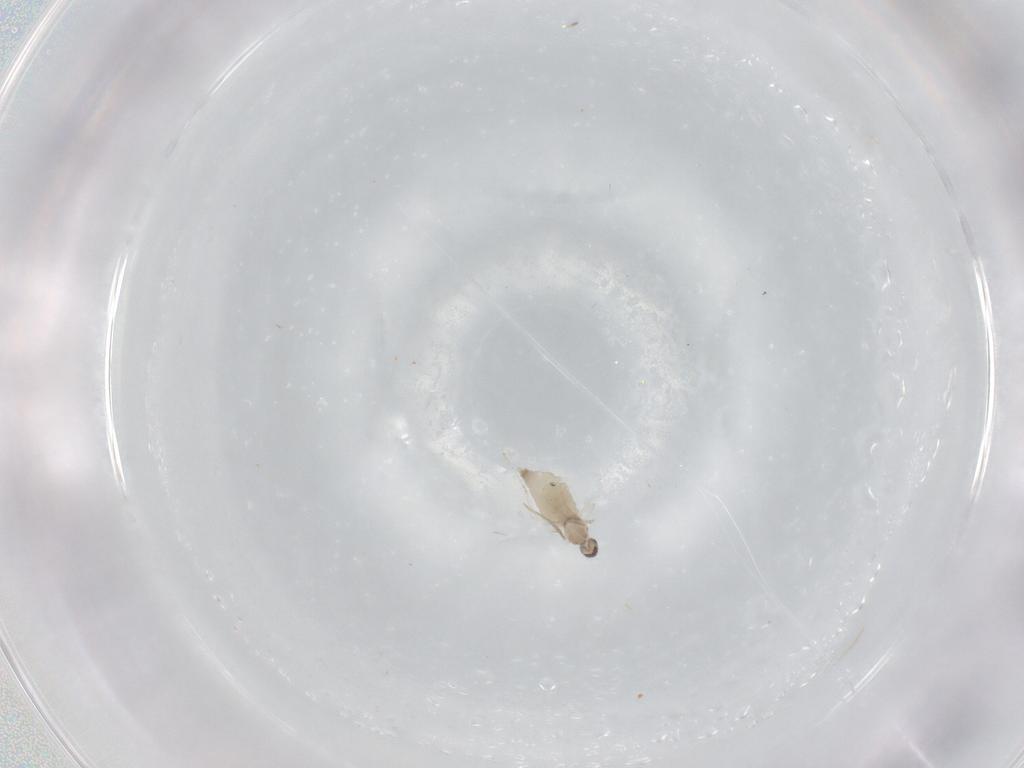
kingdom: Animalia
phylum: Arthropoda
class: Insecta
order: Diptera
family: Cecidomyiidae
